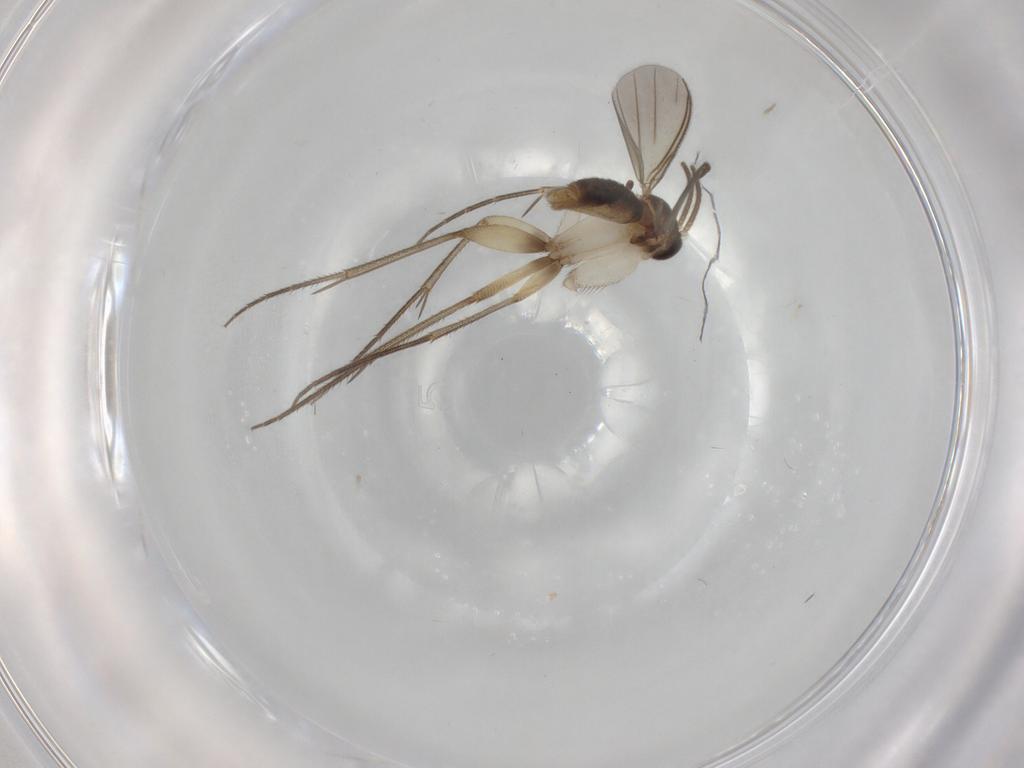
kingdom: Animalia
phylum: Arthropoda
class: Insecta
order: Diptera
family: Mycetophilidae
